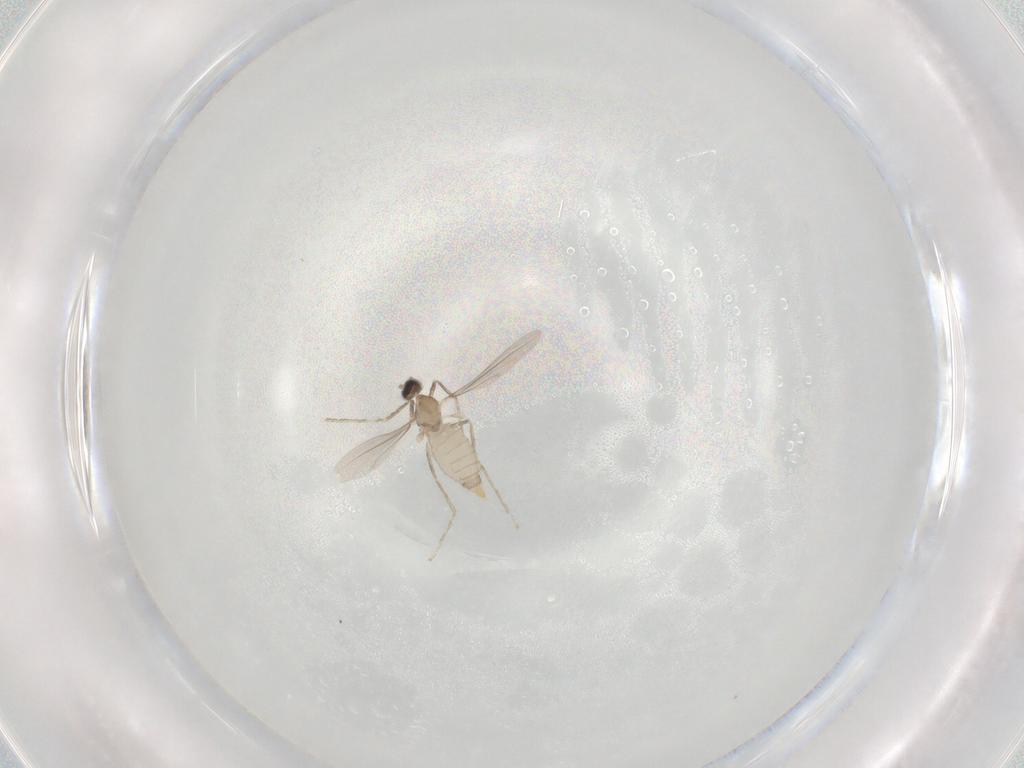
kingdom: Animalia
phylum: Arthropoda
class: Insecta
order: Diptera
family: Cecidomyiidae
